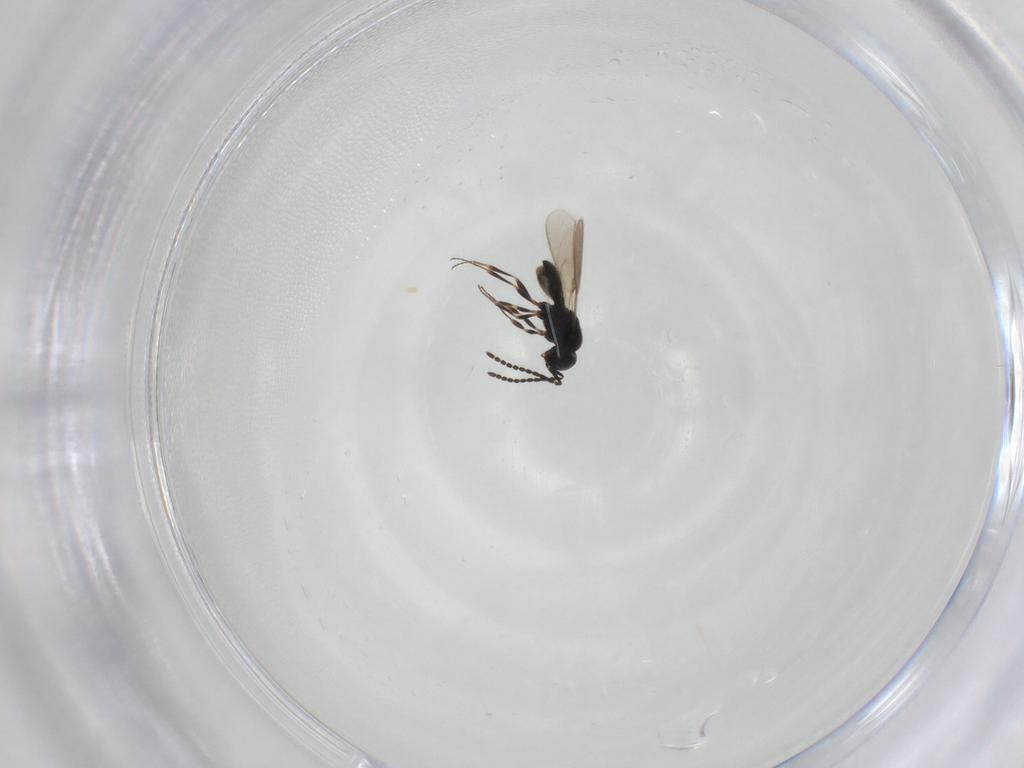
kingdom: Animalia
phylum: Arthropoda
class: Insecta
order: Hymenoptera
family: Scelionidae
